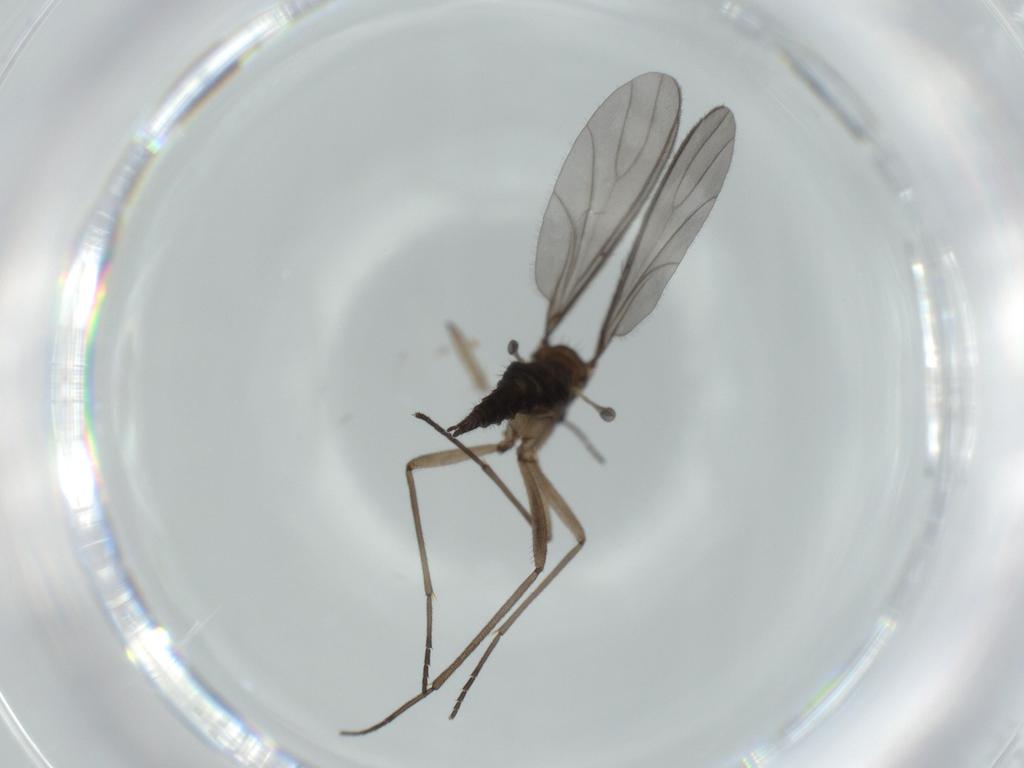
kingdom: Animalia
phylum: Arthropoda
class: Insecta
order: Diptera
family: Sciaridae
